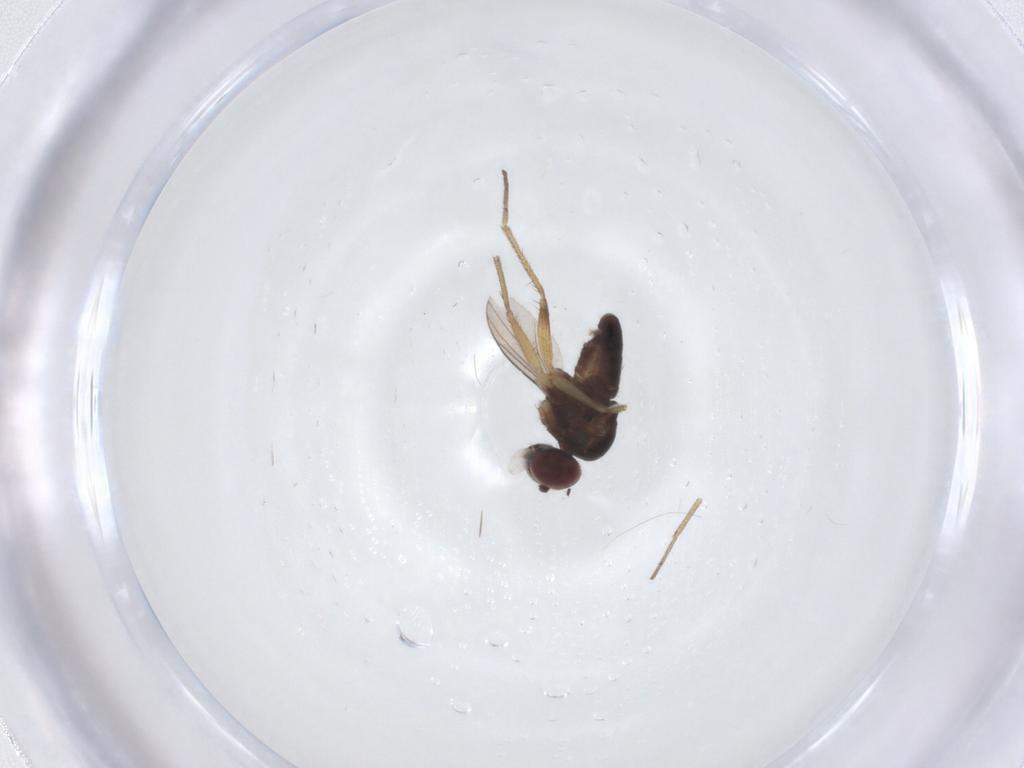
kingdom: Animalia
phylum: Arthropoda
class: Insecta
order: Diptera
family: Dolichopodidae
